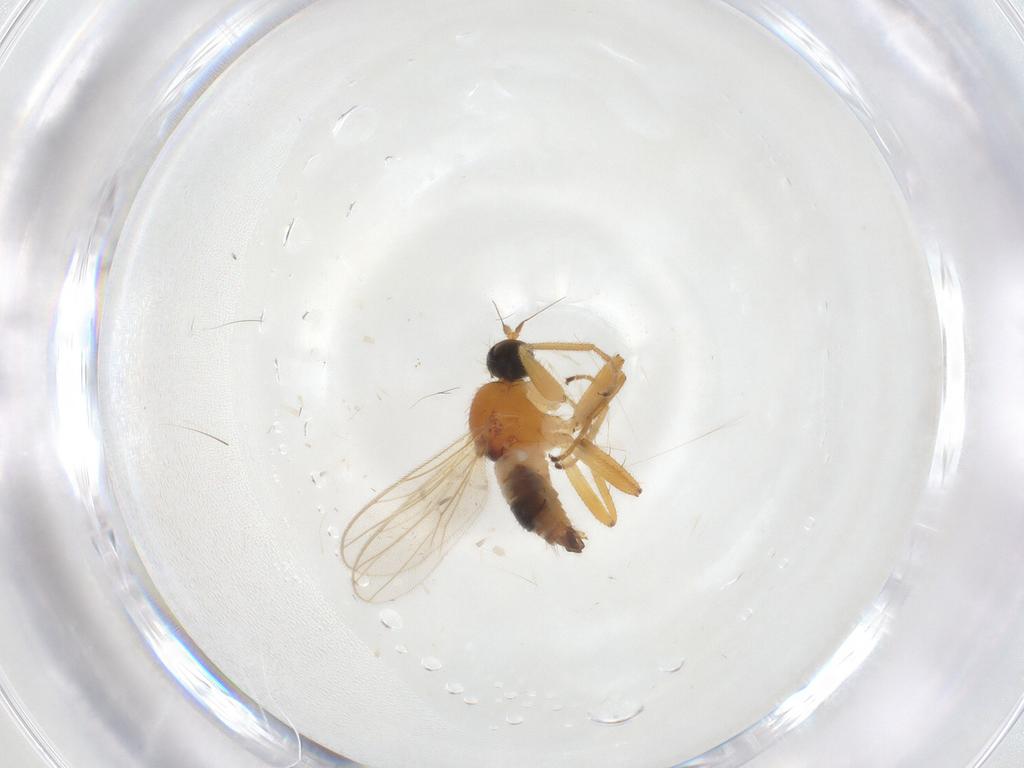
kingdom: Animalia
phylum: Arthropoda
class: Insecta
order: Diptera
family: Hybotidae
